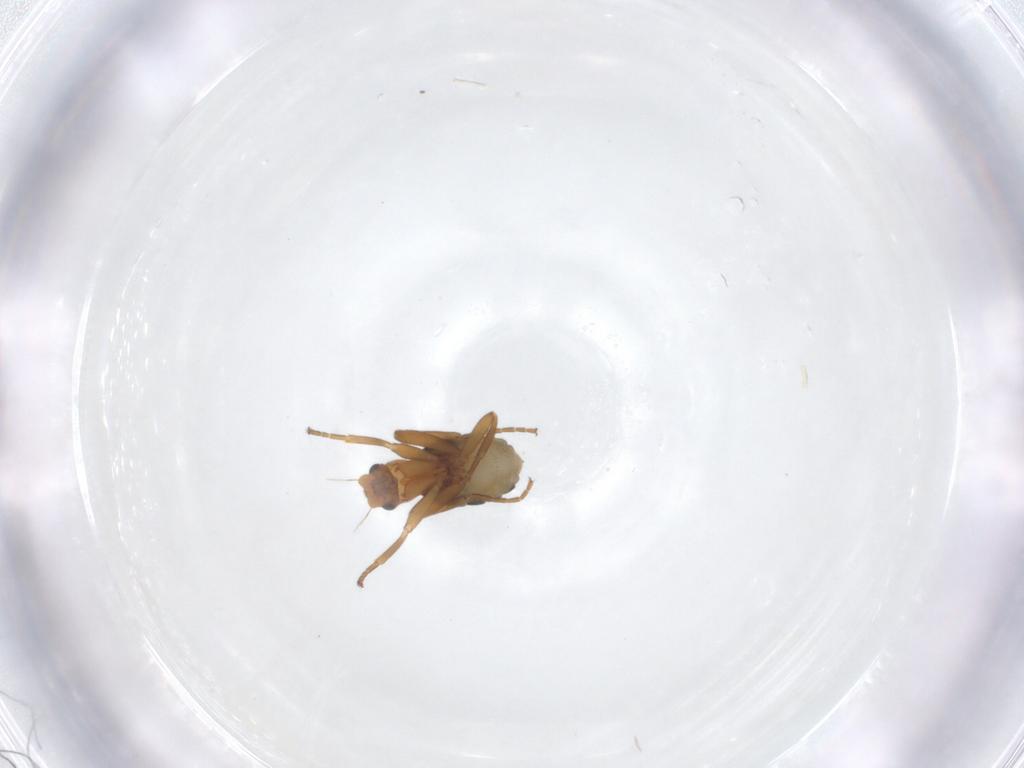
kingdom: Animalia
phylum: Arthropoda
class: Insecta
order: Diptera
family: Phoridae
